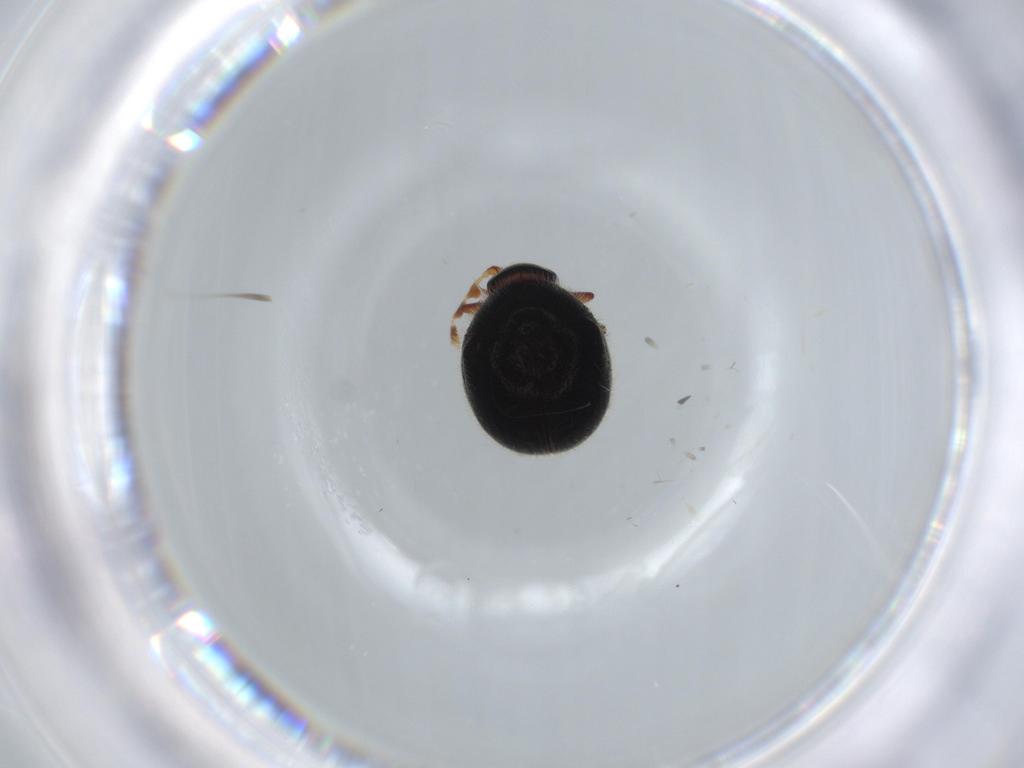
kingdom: Animalia
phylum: Arthropoda
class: Insecta
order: Coleoptera
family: Ptinidae
